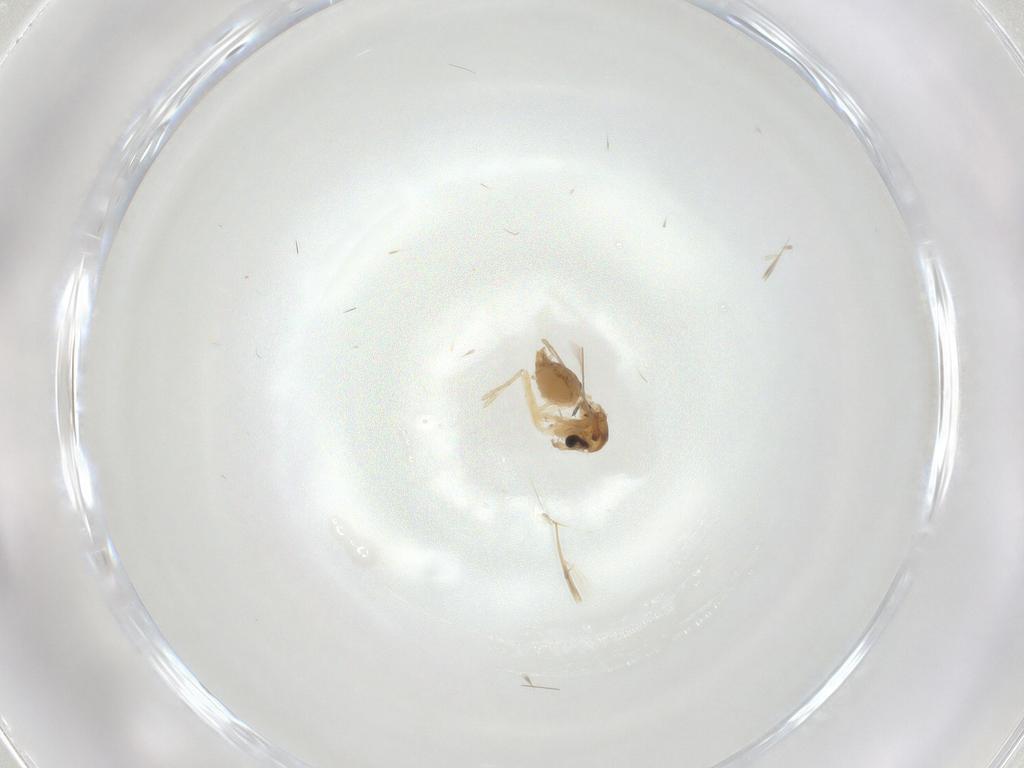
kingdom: Animalia
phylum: Arthropoda
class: Insecta
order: Diptera
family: Chironomidae
